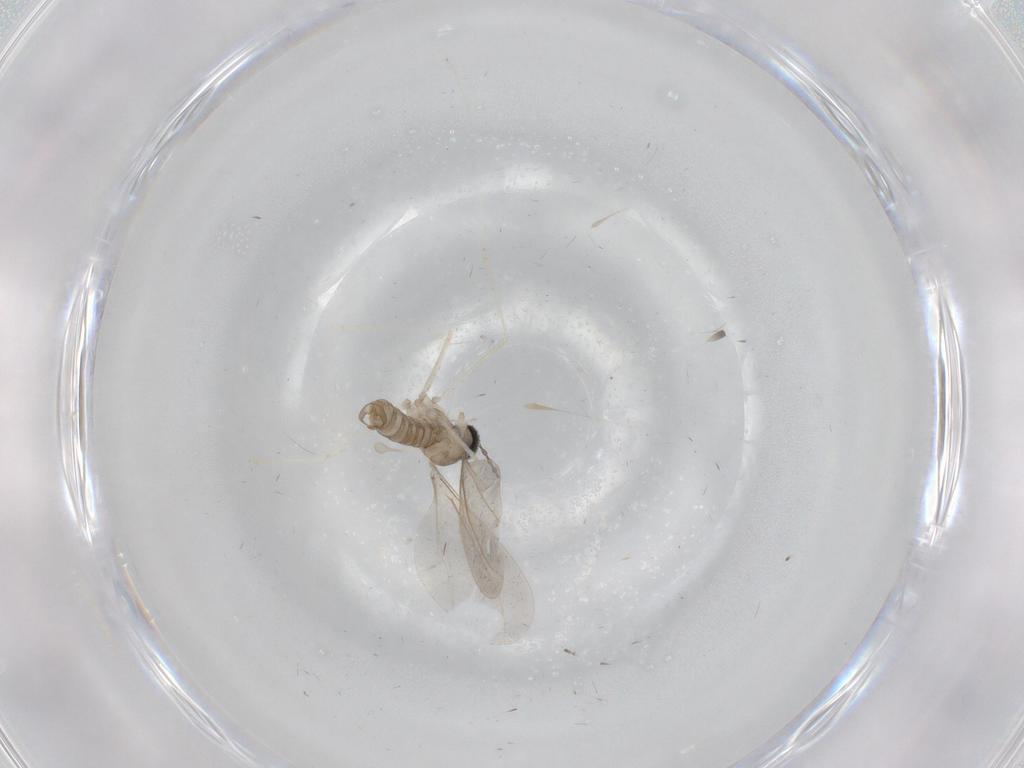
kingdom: Animalia
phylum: Arthropoda
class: Insecta
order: Diptera
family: Cecidomyiidae
